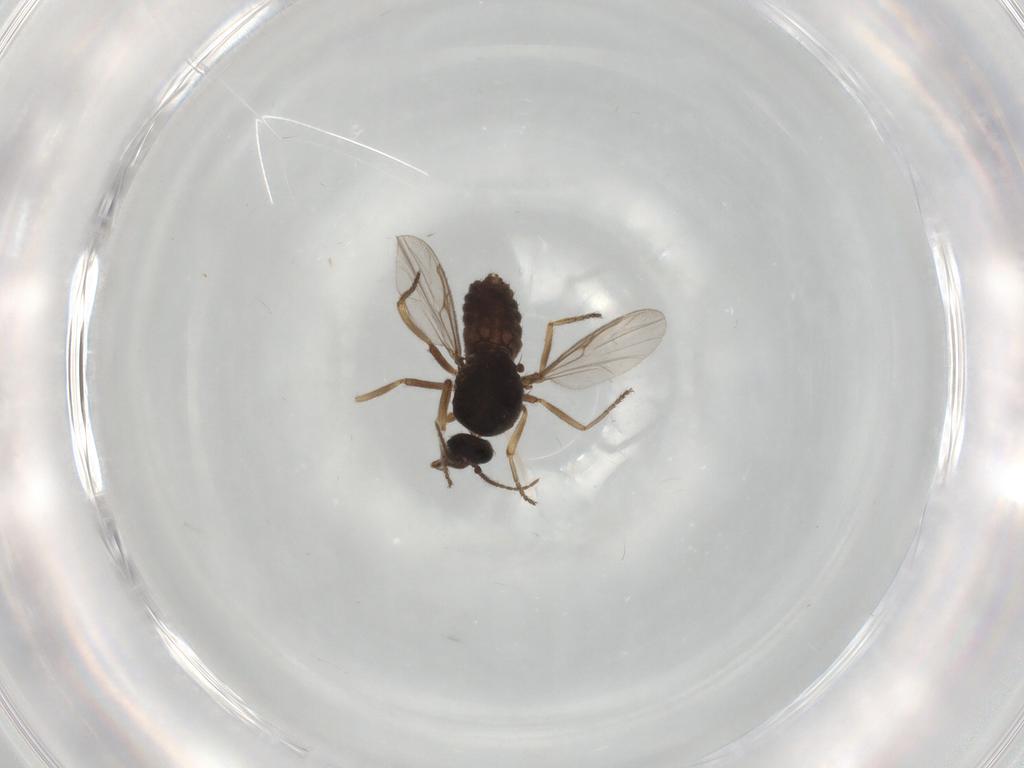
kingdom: Animalia
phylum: Arthropoda
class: Insecta
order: Diptera
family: Ceratopogonidae
